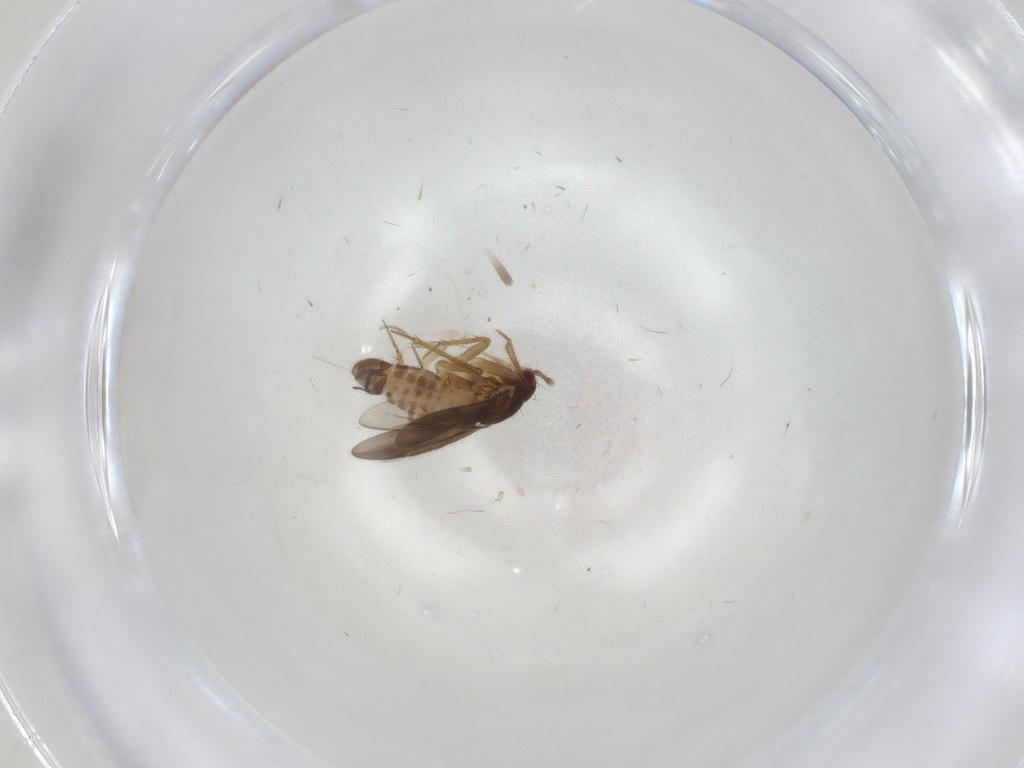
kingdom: Animalia
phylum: Arthropoda
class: Insecta
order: Hemiptera
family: Ceratocombidae
